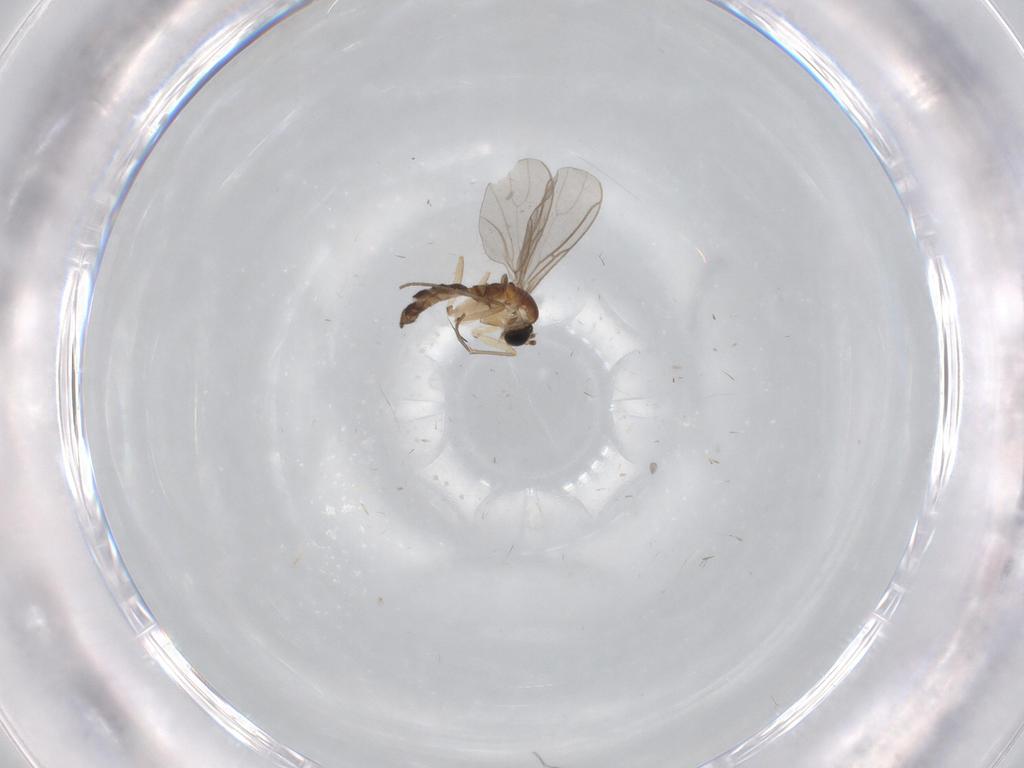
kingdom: Animalia
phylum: Arthropoda
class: Insecta
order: Diptera
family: Sciaridae
